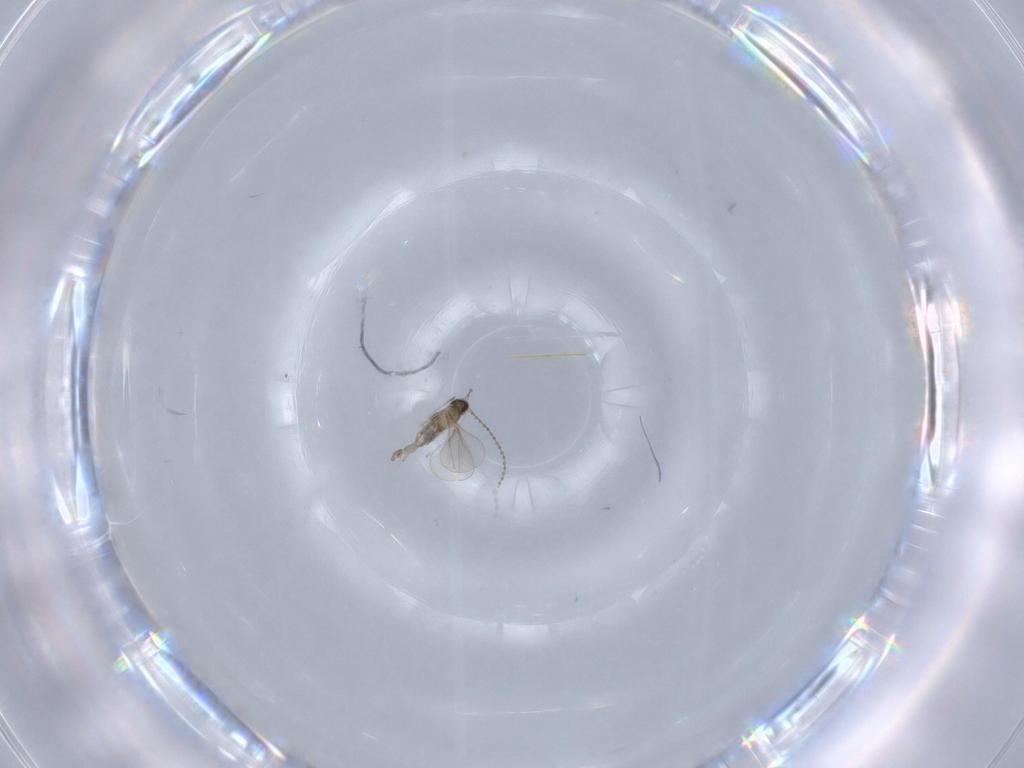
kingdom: Animalia
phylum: Arthropoda
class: Insecta
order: Diptera
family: Cecidomyiidae
